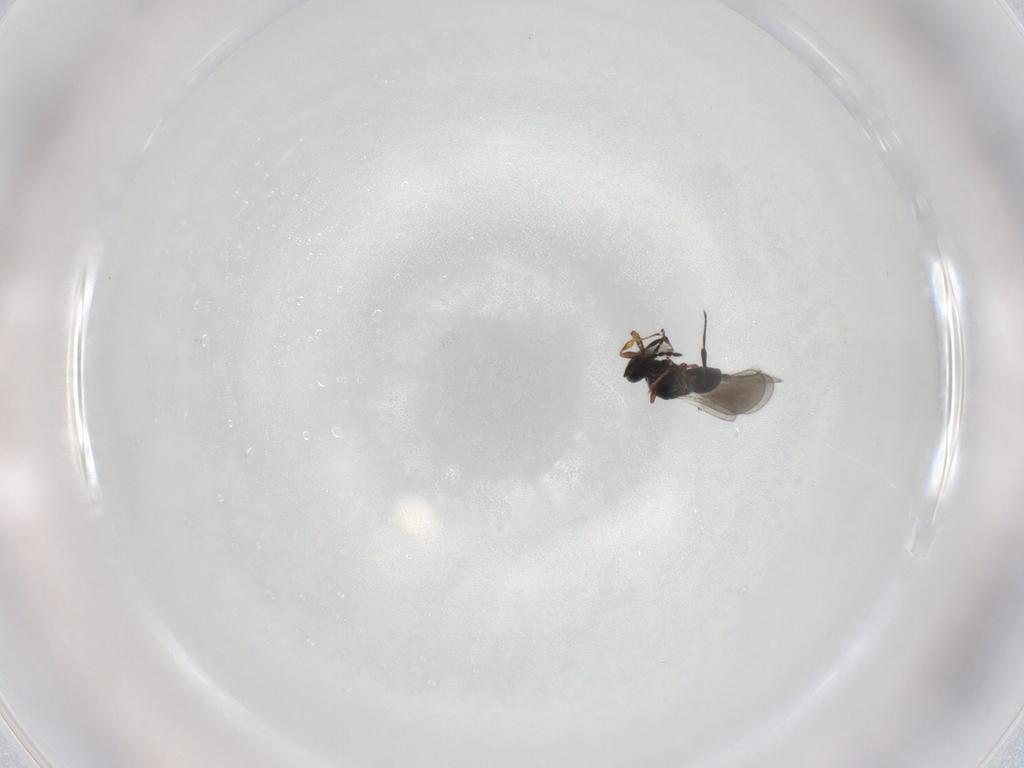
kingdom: Animalia
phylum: Arthropoda
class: Insecta
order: Hymenoptera
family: Platygastridae
